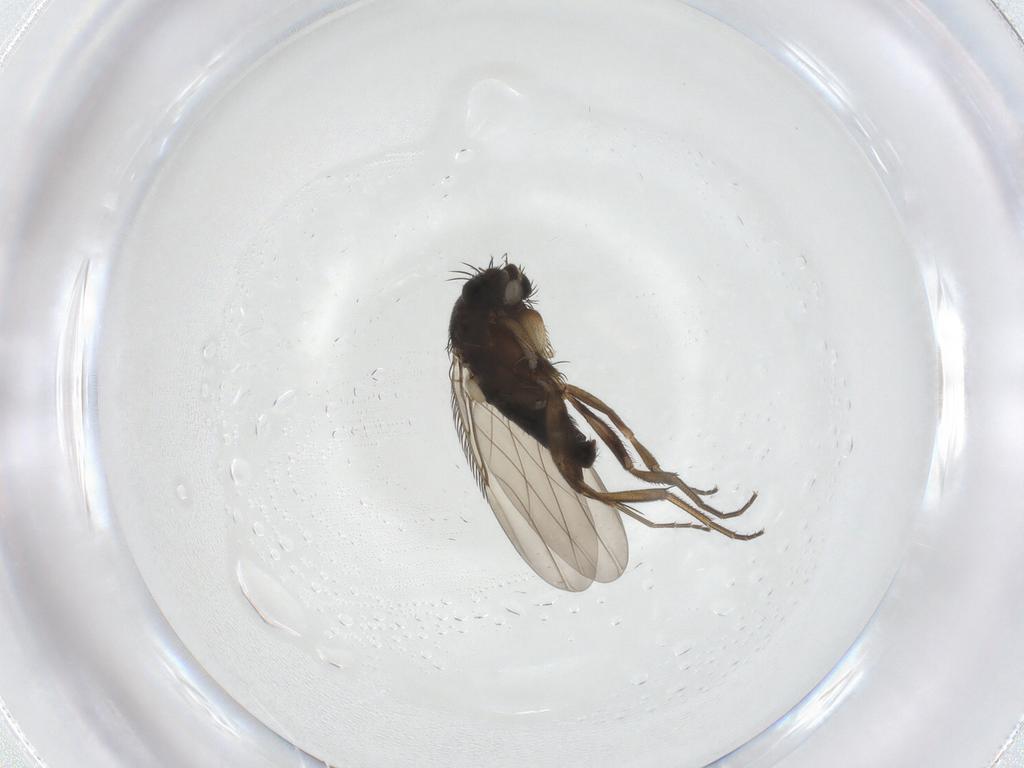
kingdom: Animalia
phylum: Arthropoda
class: Insecta
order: Diptera
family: Phoridae
